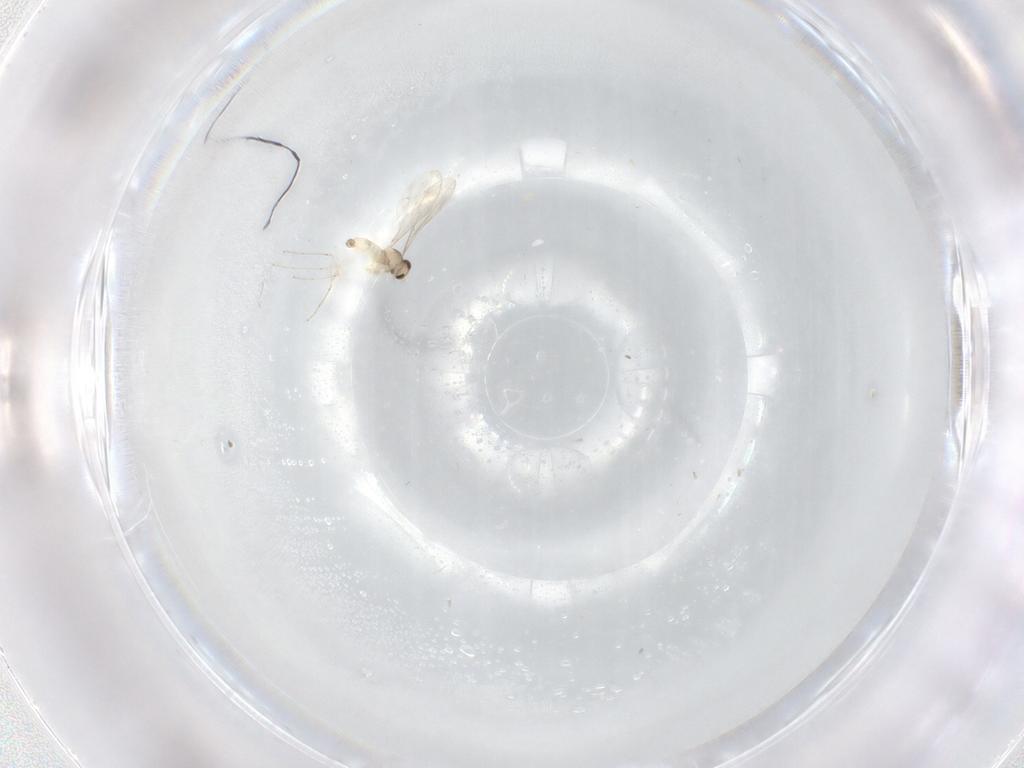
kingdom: Animalia
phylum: Arthropoda
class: Insecta
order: Diptera
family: Cecidomyiidae
